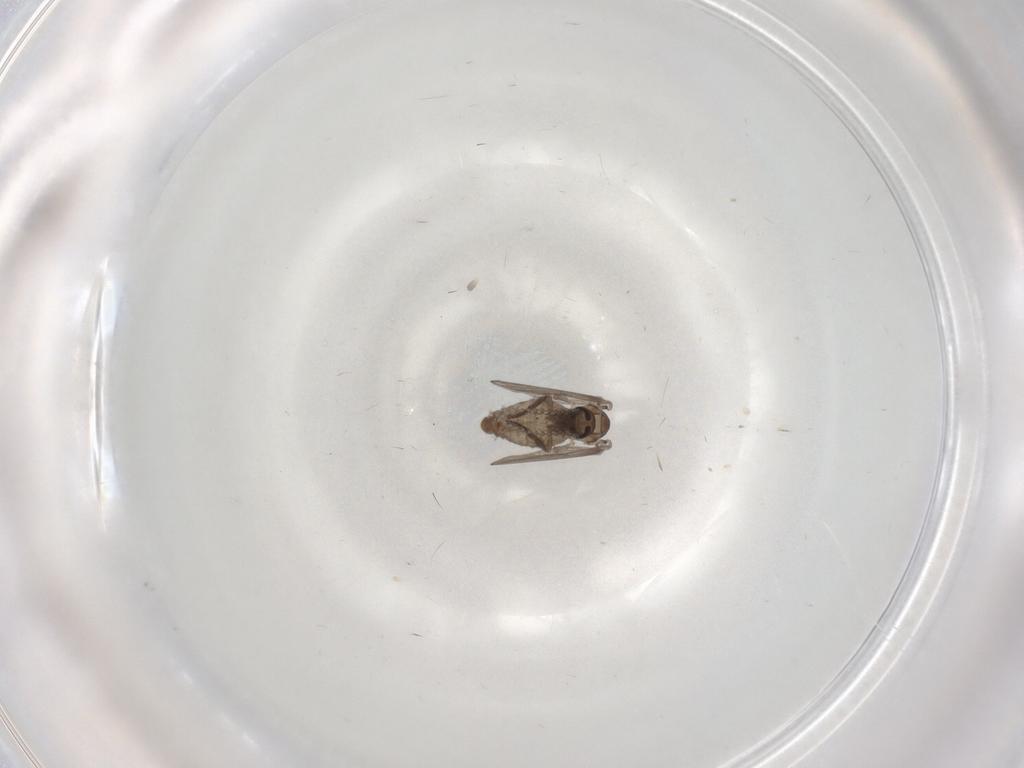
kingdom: Animalia
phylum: Arthropoda
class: Insecta
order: Diptera
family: Psychodidae
